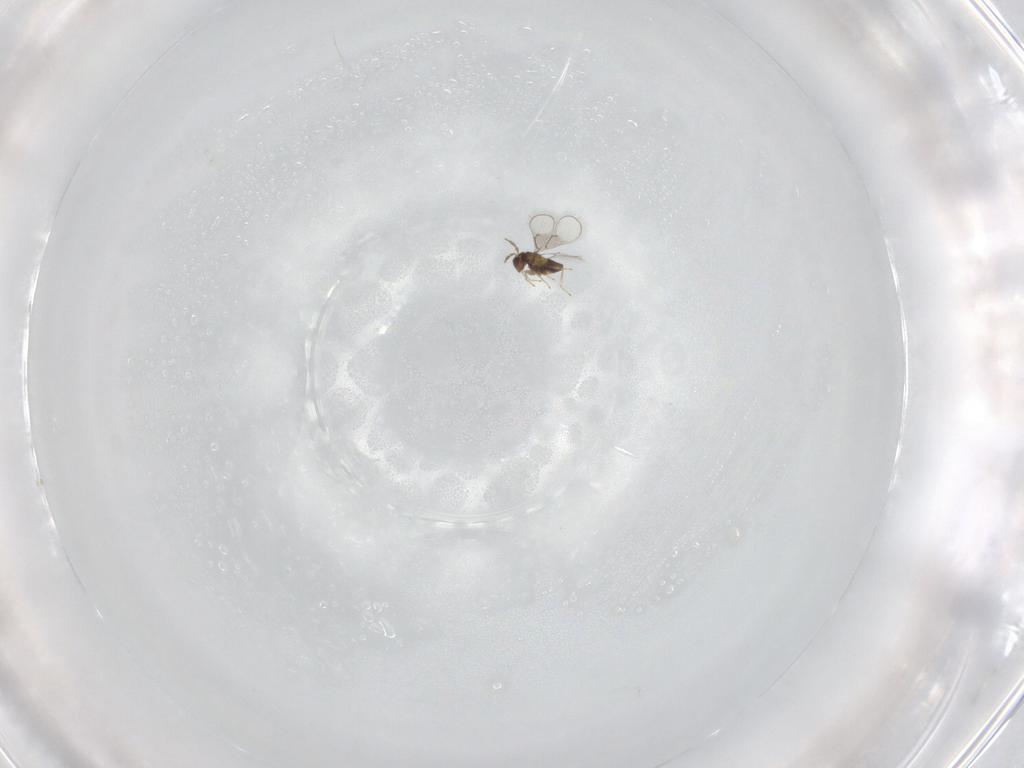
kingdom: Animalia
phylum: Arthropoda
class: Insecta
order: Hymenoptera
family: Trichogrammatidae
